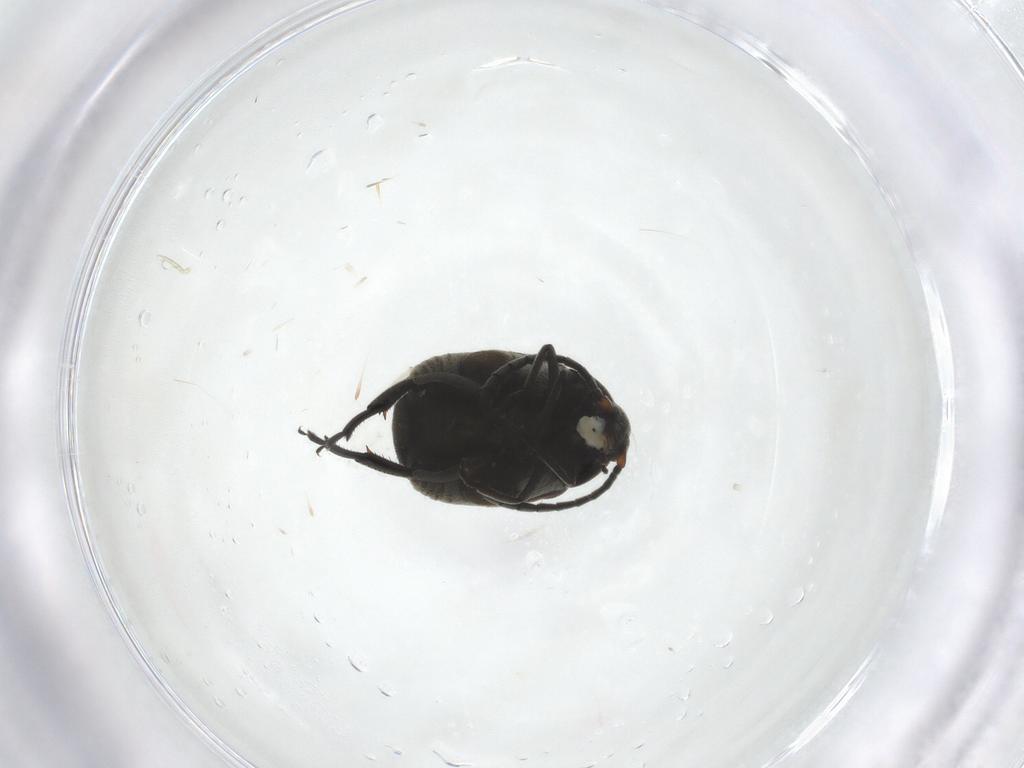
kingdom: Animalia
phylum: Arthropoda
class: Insecta
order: Coleoptera
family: Chrysomelidae
